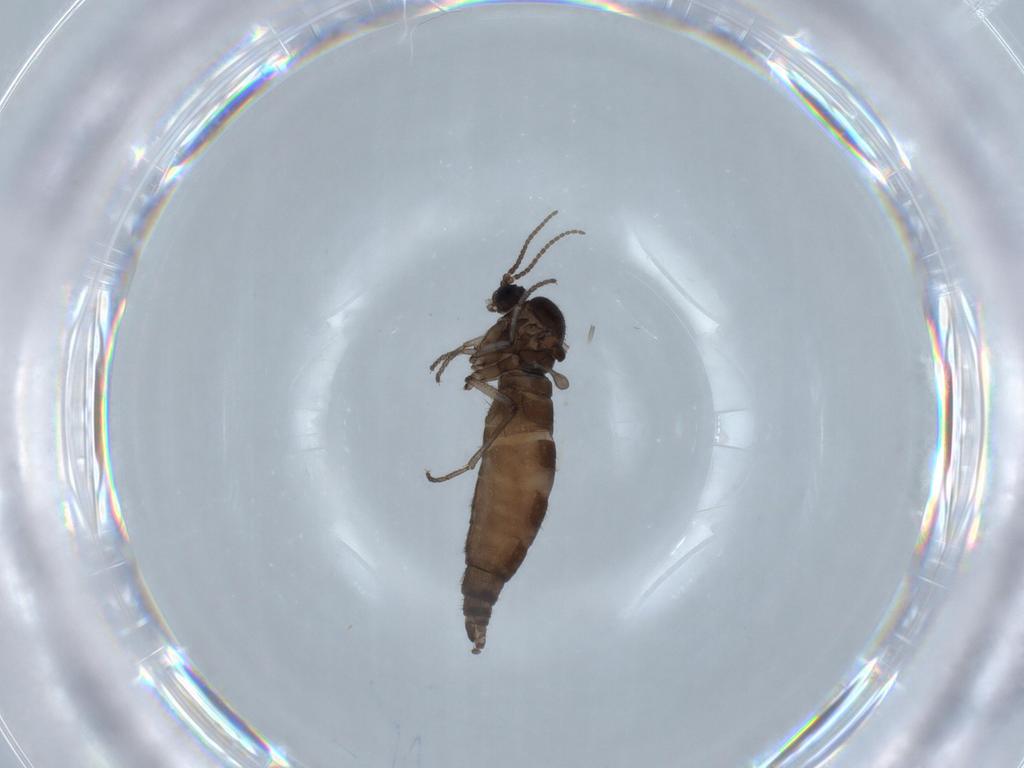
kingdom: Animalia
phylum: Arthropoda
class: Insecta
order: Diptera
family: Sciaridae
